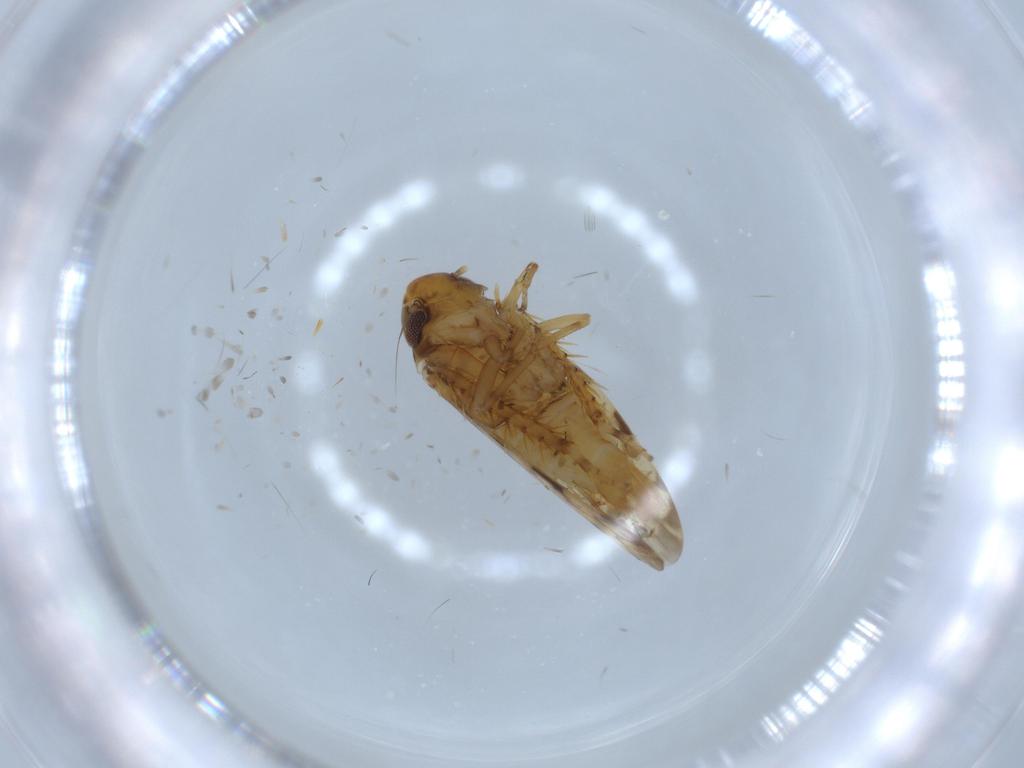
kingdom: Animalia
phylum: Arthropoda
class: Insecta
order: Hemiptera
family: Cicadellidae
